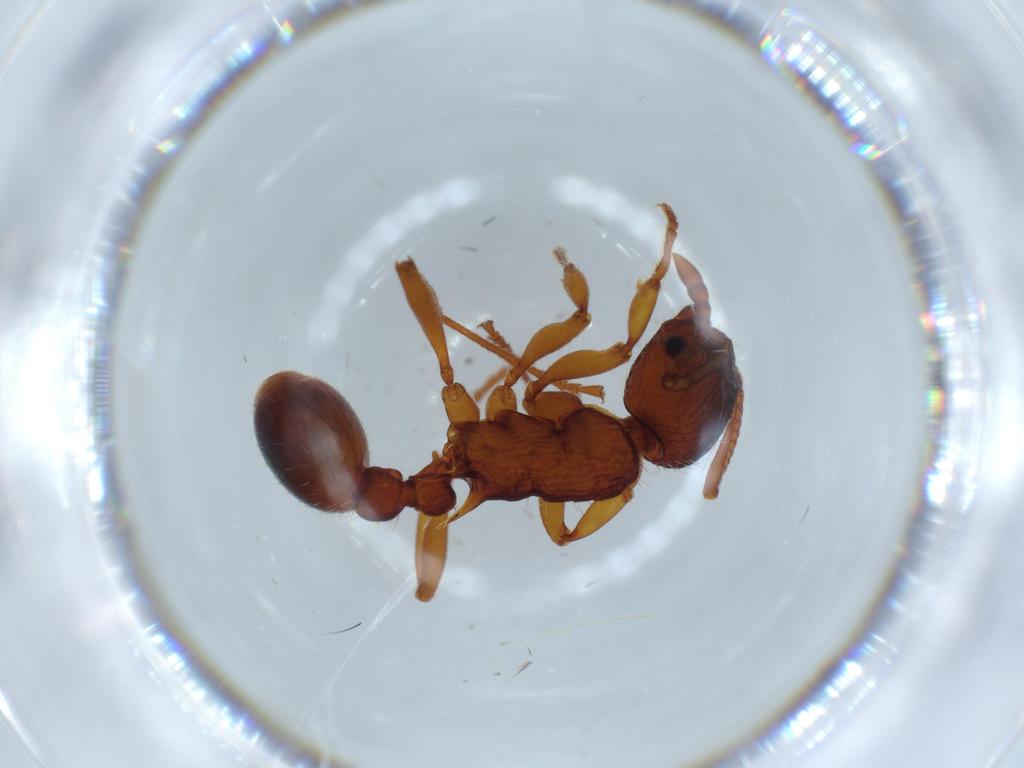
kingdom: Animalia
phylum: Arthropoda
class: Insecta
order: Hymenoptera
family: Formicidae
